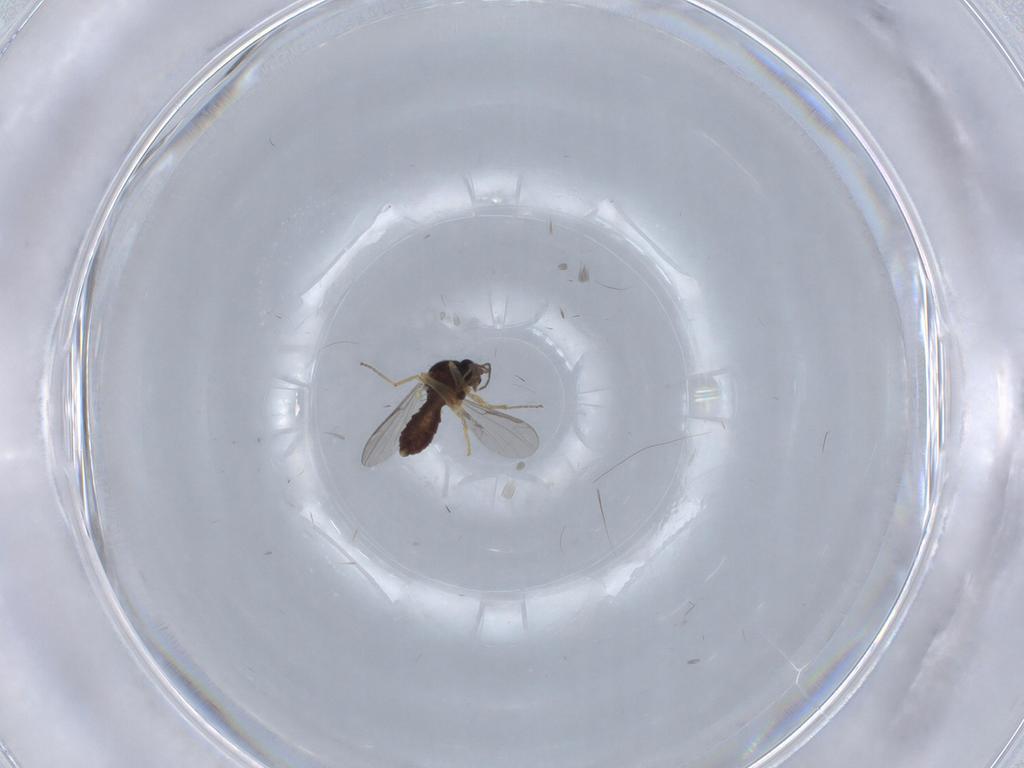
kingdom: Animalia
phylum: Arthropoda
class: Insecta
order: Diptera
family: Ceratopogonidae
